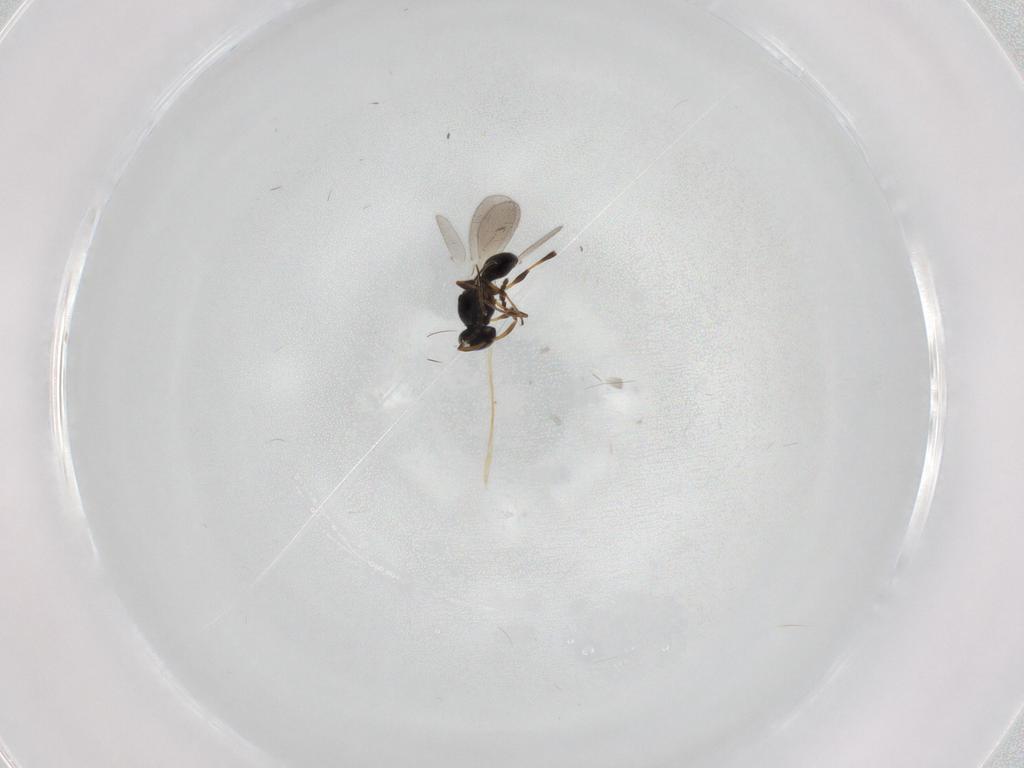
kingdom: Animalia
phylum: Arthropoda
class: Insecta
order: Hymenoptera
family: Platygastridae
